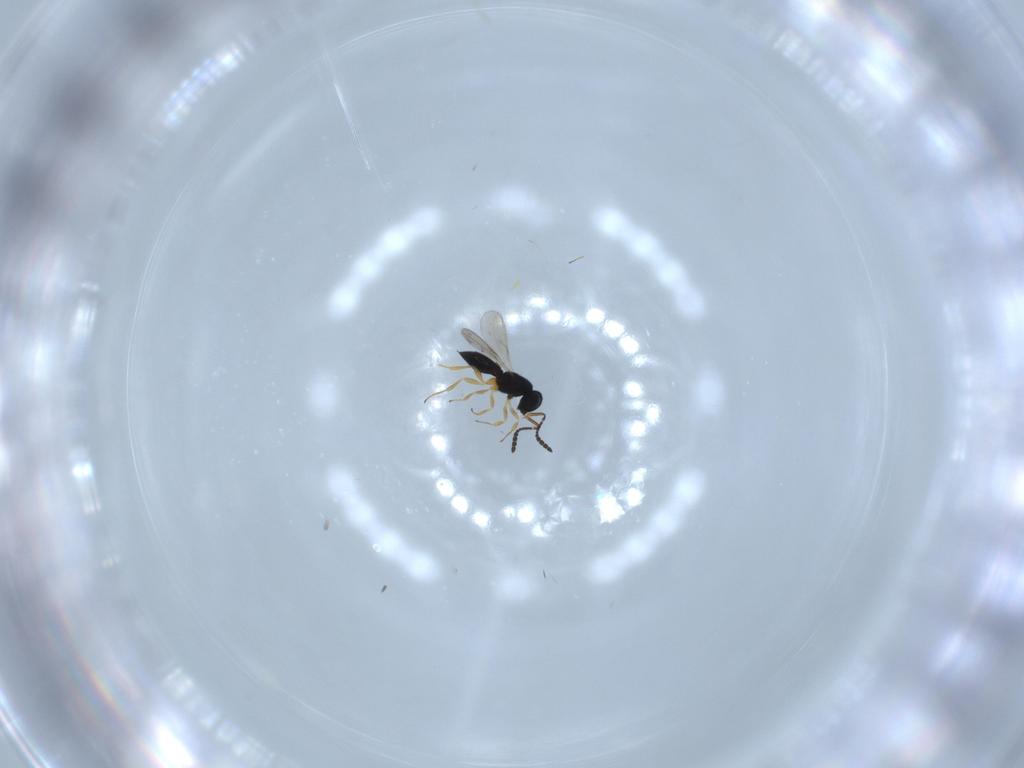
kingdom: Animalia
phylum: Arthropoda
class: Insecta
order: Hymenoptera
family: Scelionidae
